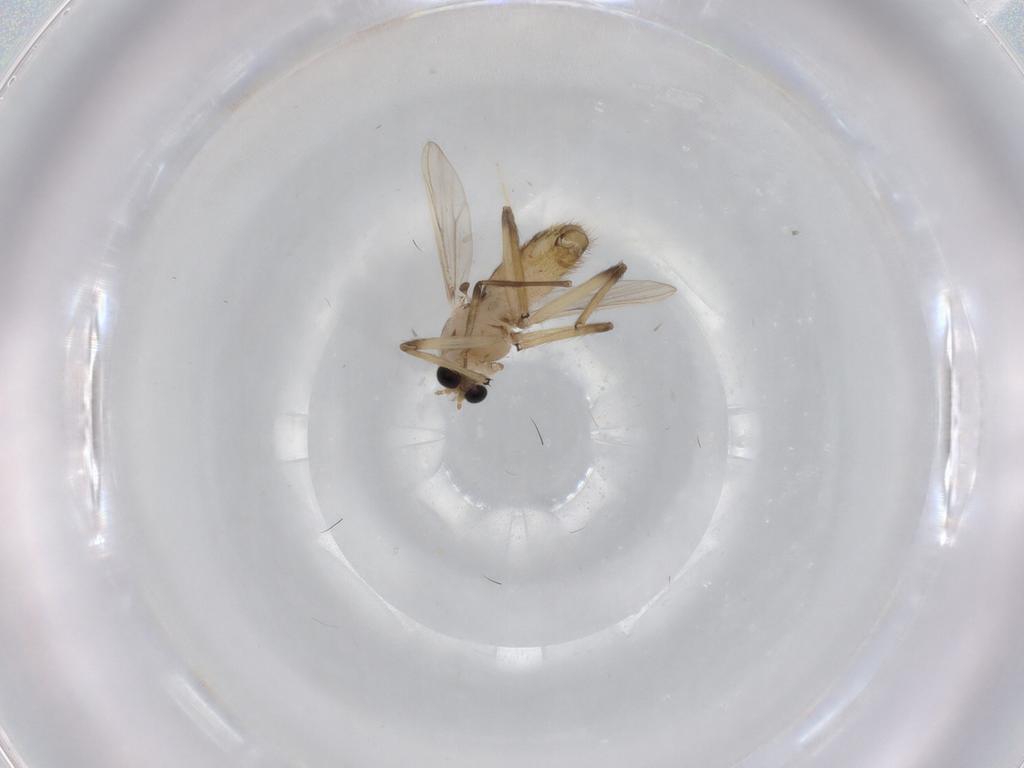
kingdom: Animalia
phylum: Arthropoda
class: Insecta
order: Diptera
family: Chironomidae
